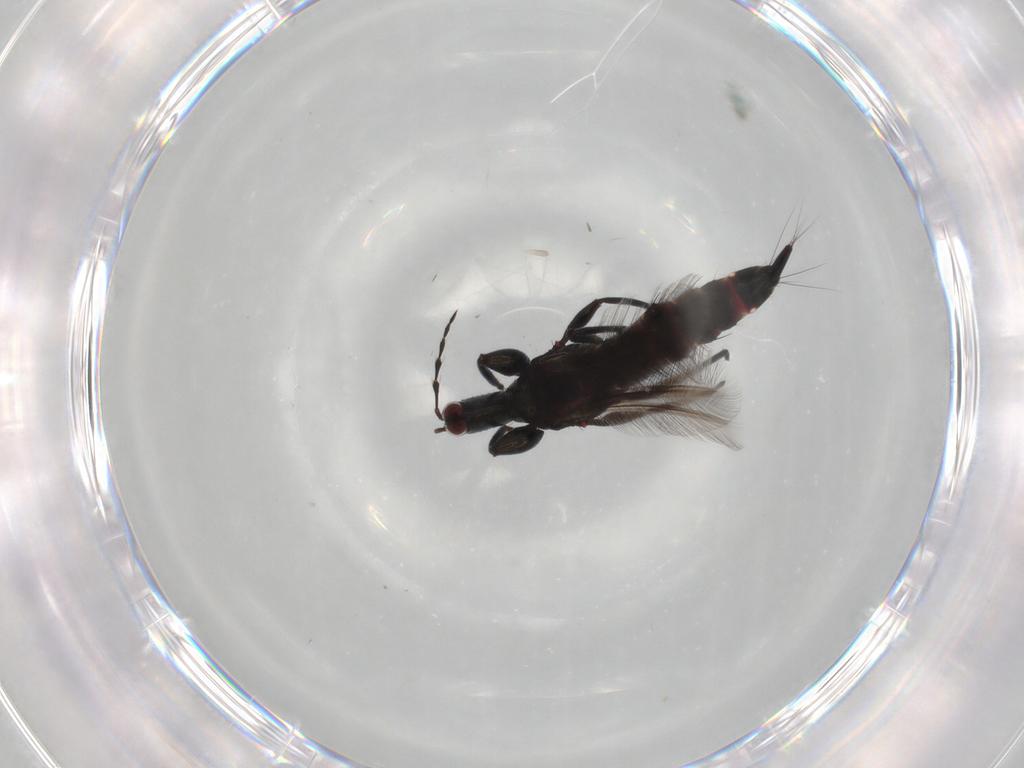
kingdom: Animalia
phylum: Arthropoda
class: Insecta
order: Thysanoptera
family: Phlaeothripidae
